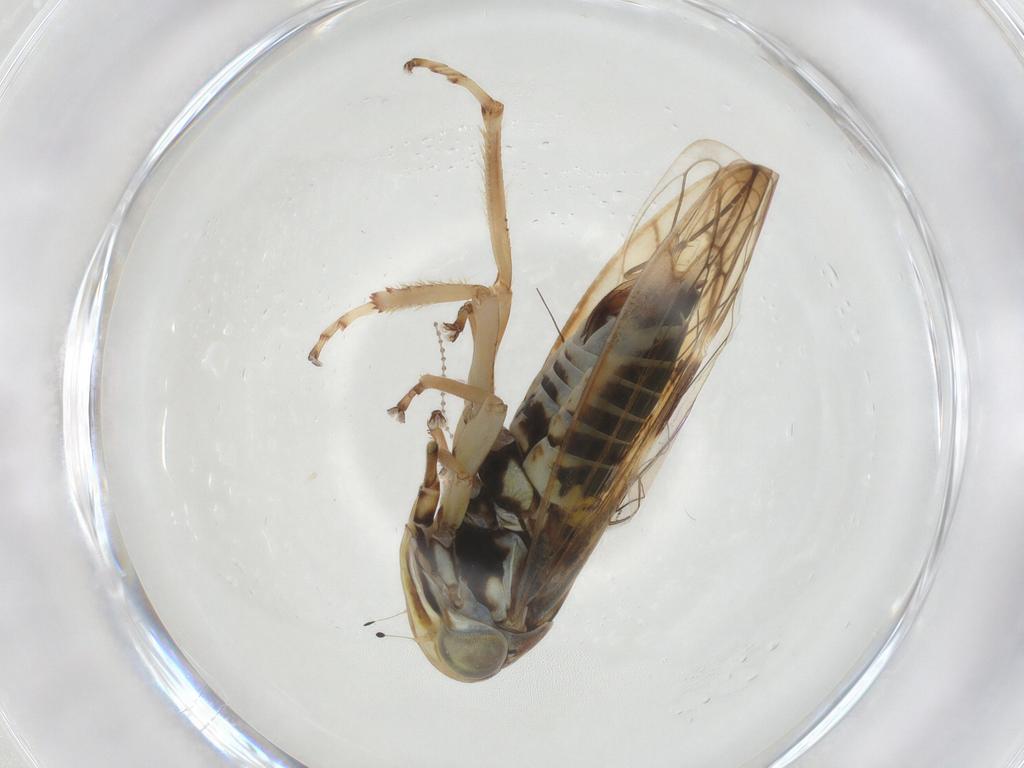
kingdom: Animalia
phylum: Arthropoda
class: Insecta
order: Hemiptera
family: Cicadellidae
